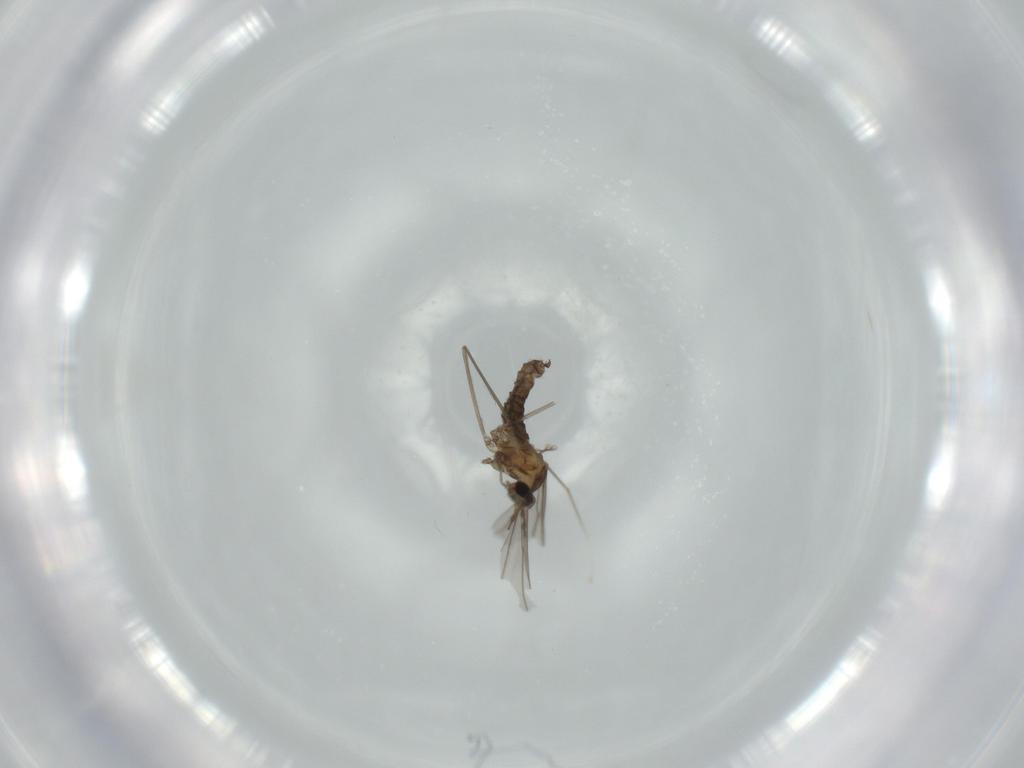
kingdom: Animalia
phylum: Arthropoda
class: Insecta
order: Diptera
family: Cecidomyiidae
